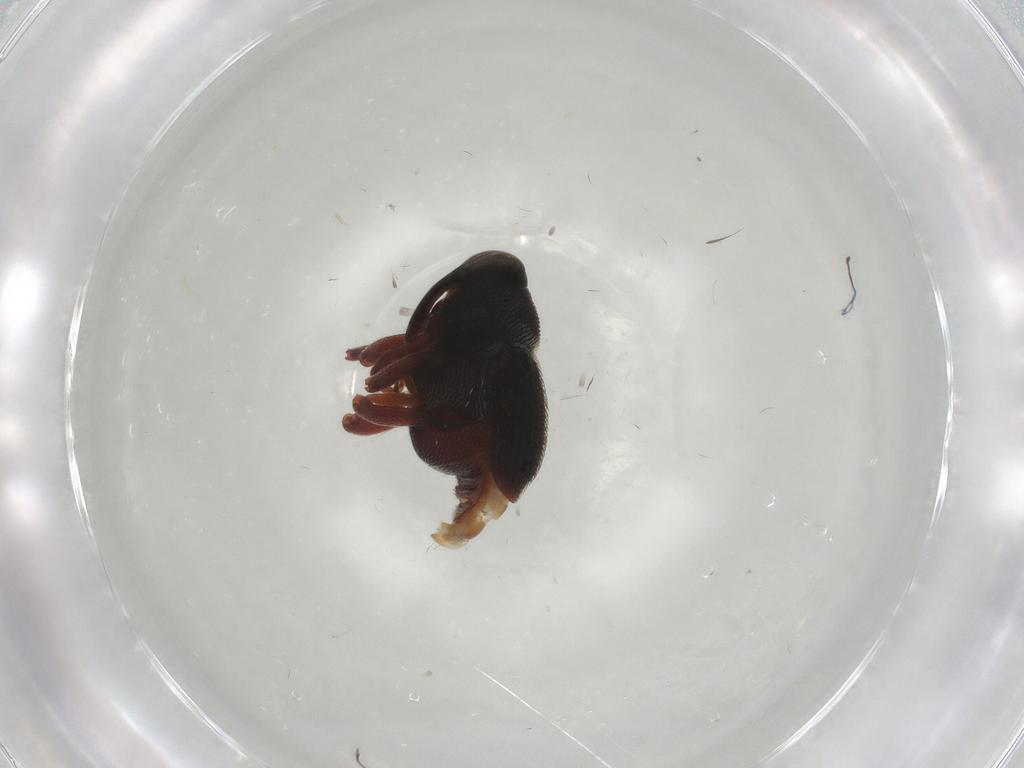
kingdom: Animalia
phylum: Arthropoda
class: Insecta
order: Coleoptera
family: Curculionidae
